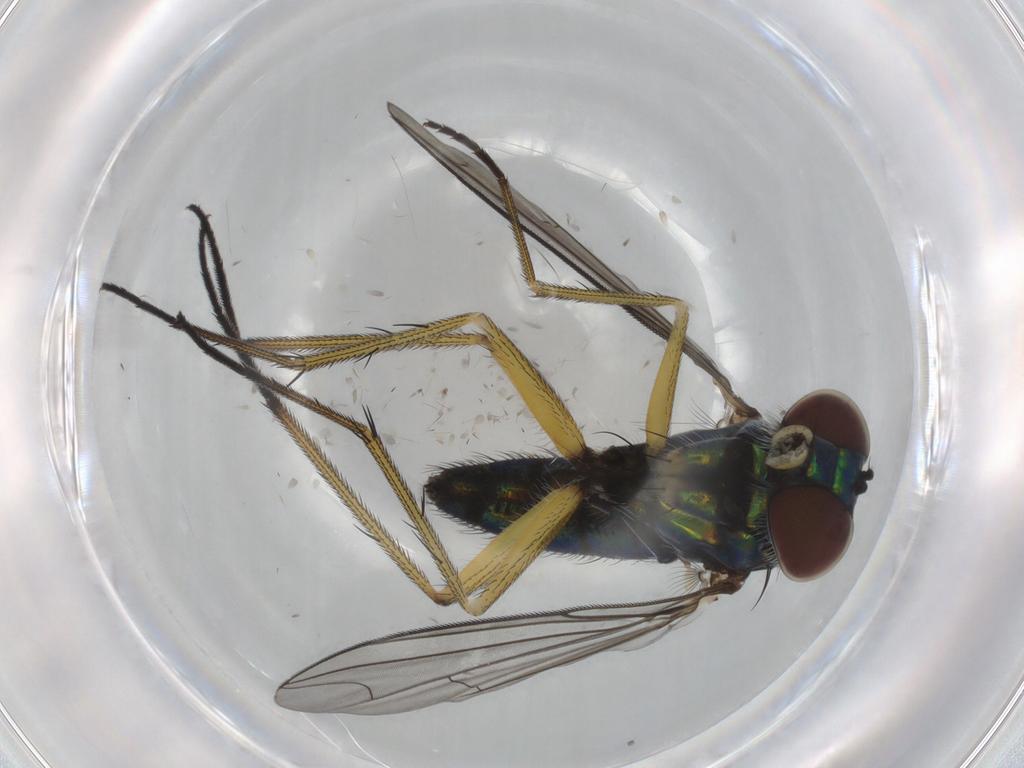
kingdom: Animalia
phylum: Arthropoda
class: Insecta
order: Diptera
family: Dolichopodidae
